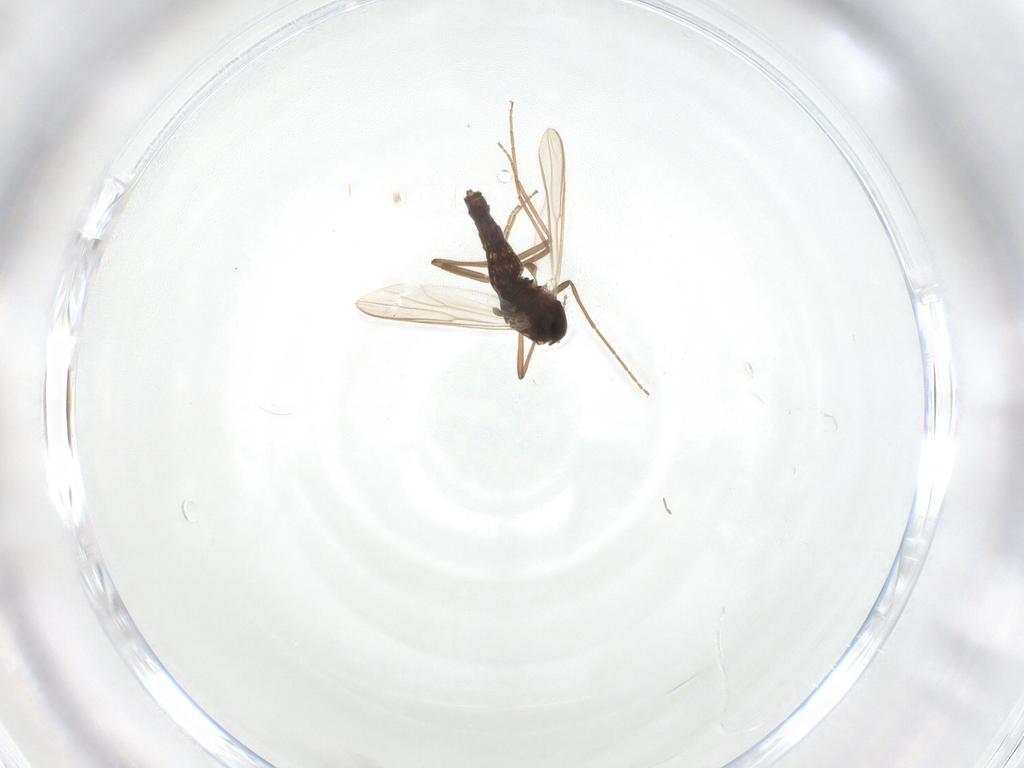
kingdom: Animalia
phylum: Arthropoda
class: Insecta
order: Diptera
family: Chironomidae
